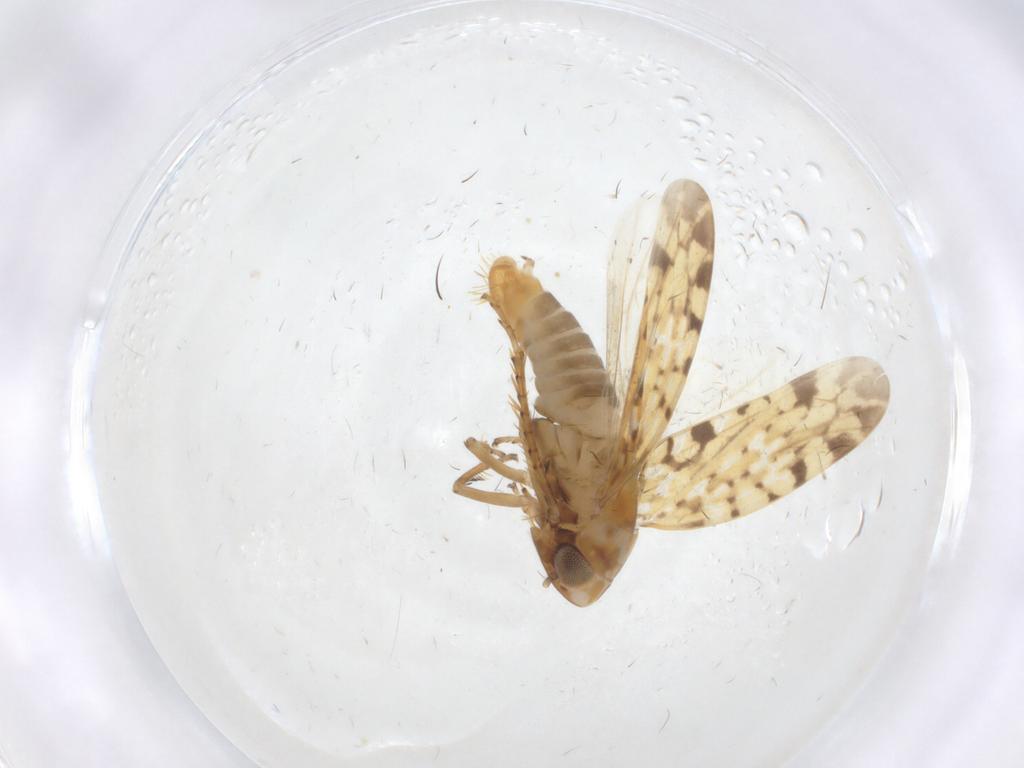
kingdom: Animalia
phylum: Arthropoda
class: Insecta
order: Hemiptera
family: Cicadellidae
